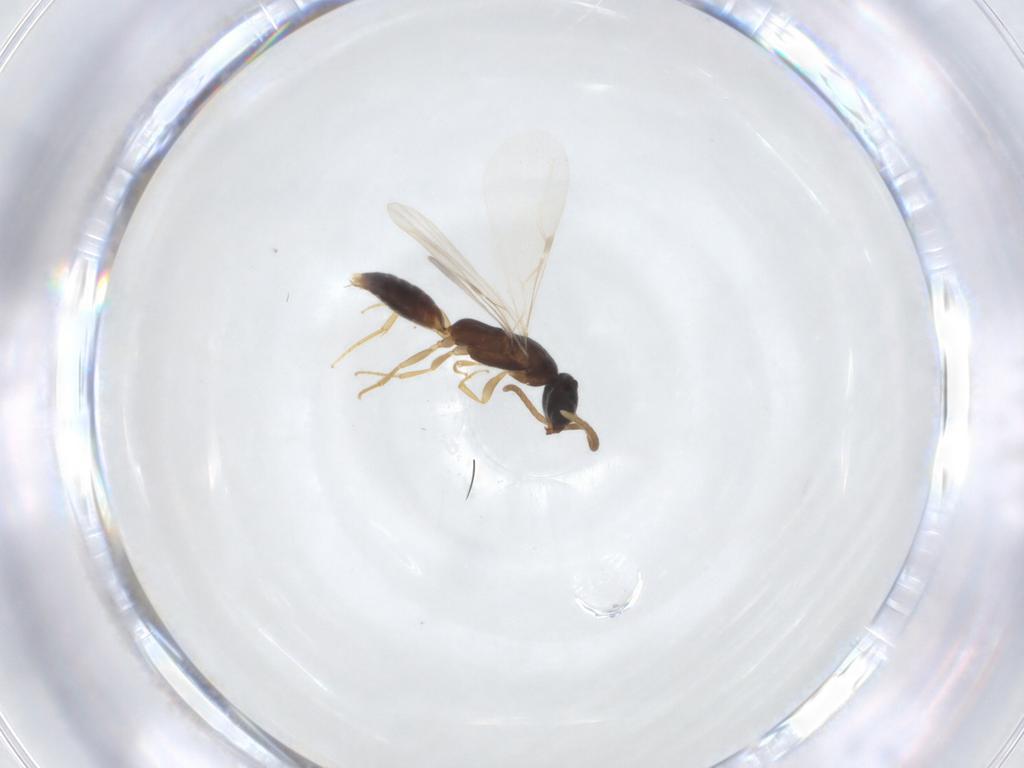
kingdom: Animalia
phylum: Arthropoda
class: Insecta
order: Hymenoptera
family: Bethylidae
